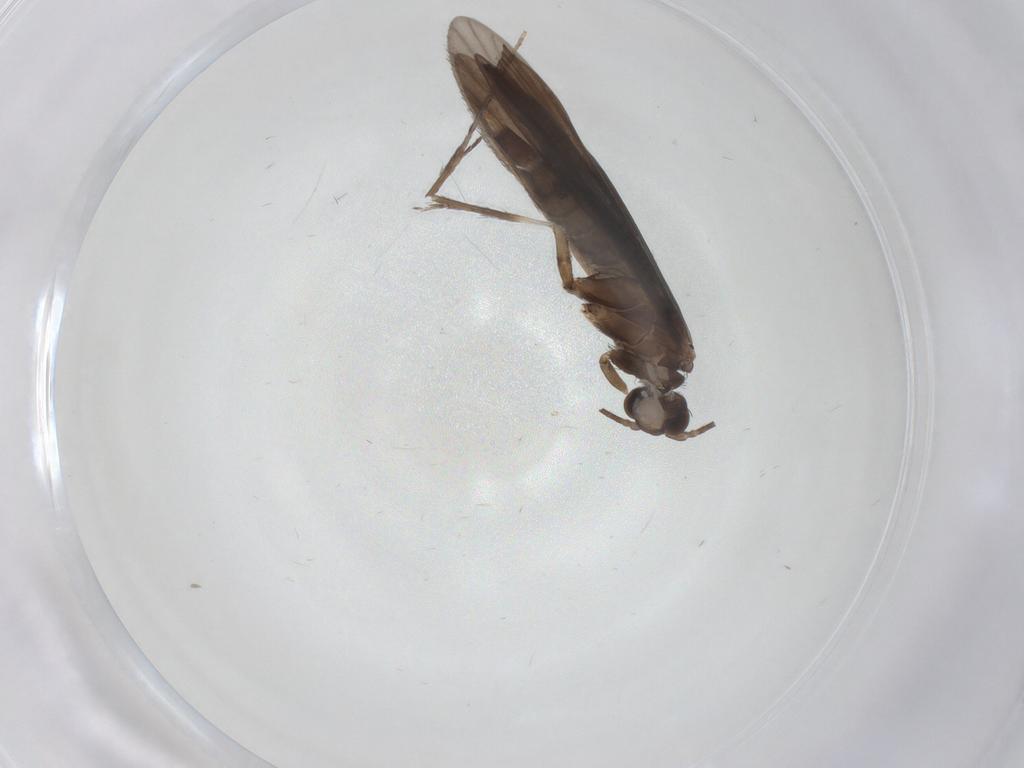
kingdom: Animalia
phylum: Arthropoda
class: Insecta
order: Trichoptera
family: Xiphocentronidae
